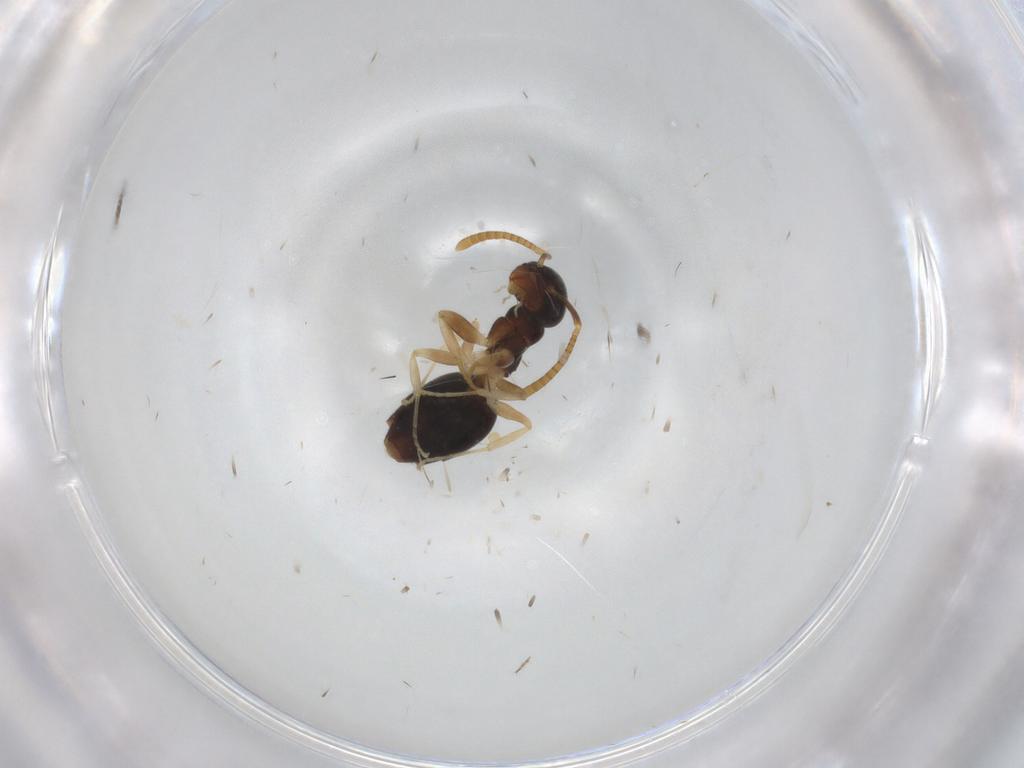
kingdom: Animalia
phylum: Arthropoda
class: Insecta
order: Hymenoptera
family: Formicidae
